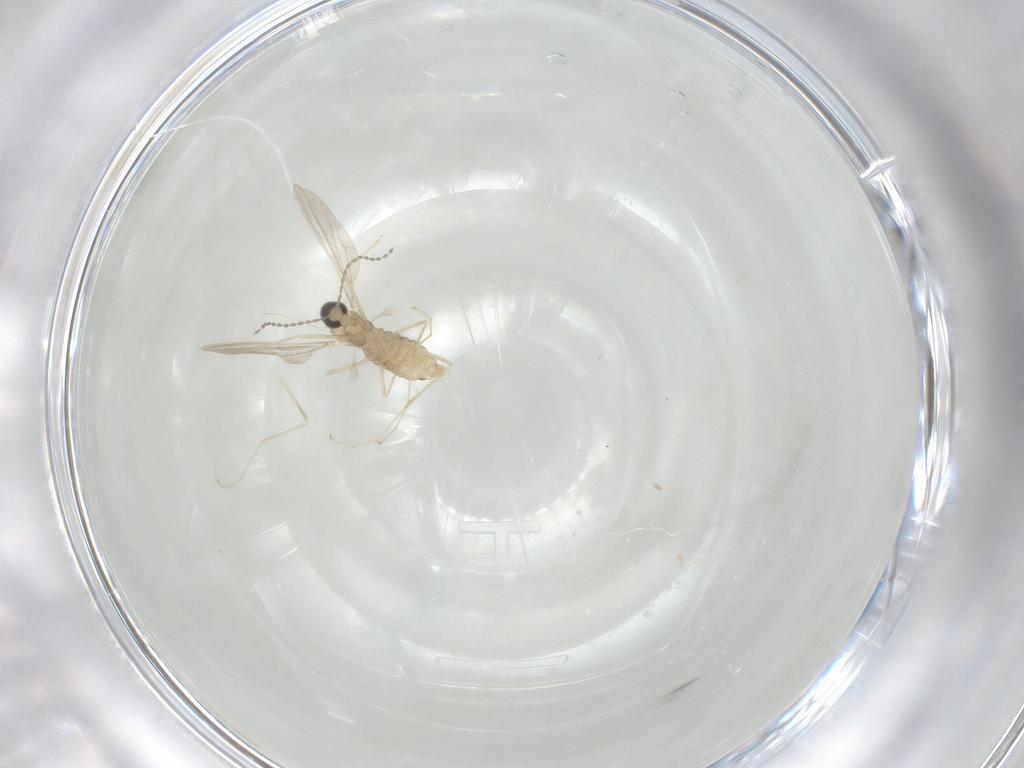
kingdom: Animalia
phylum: Arthropoda
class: Insecta
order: Diptera
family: Cecidomyiidae
